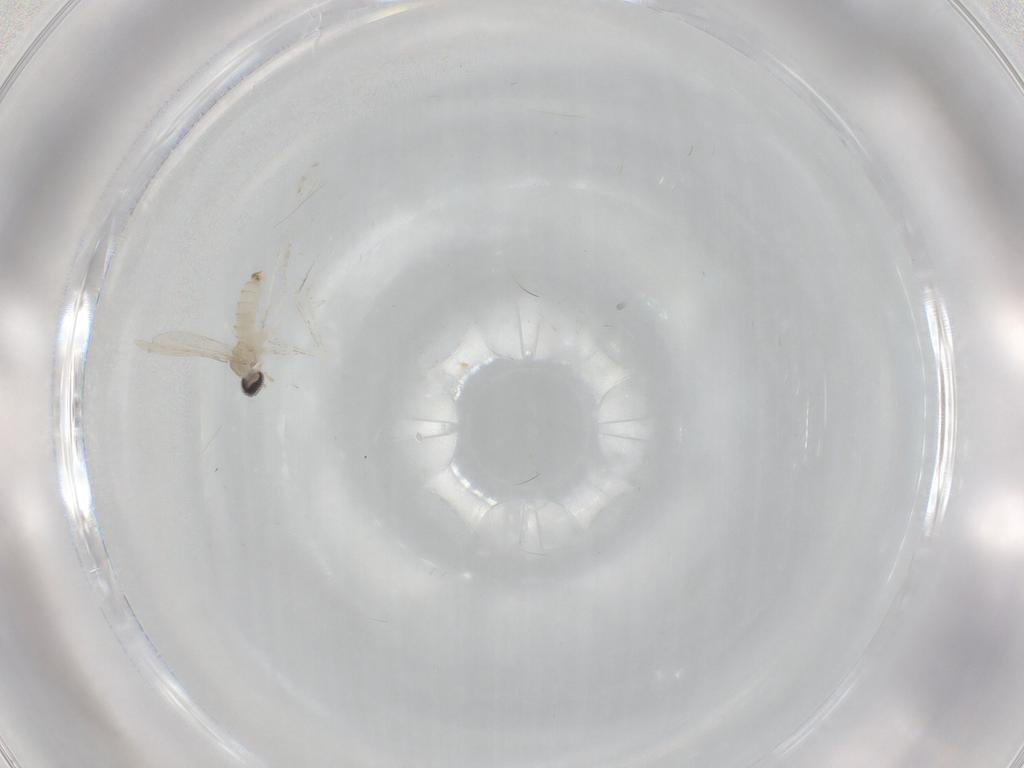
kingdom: Animalia
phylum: Arthropoda
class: Insecta
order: Diptera
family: Cecidomyiidae
